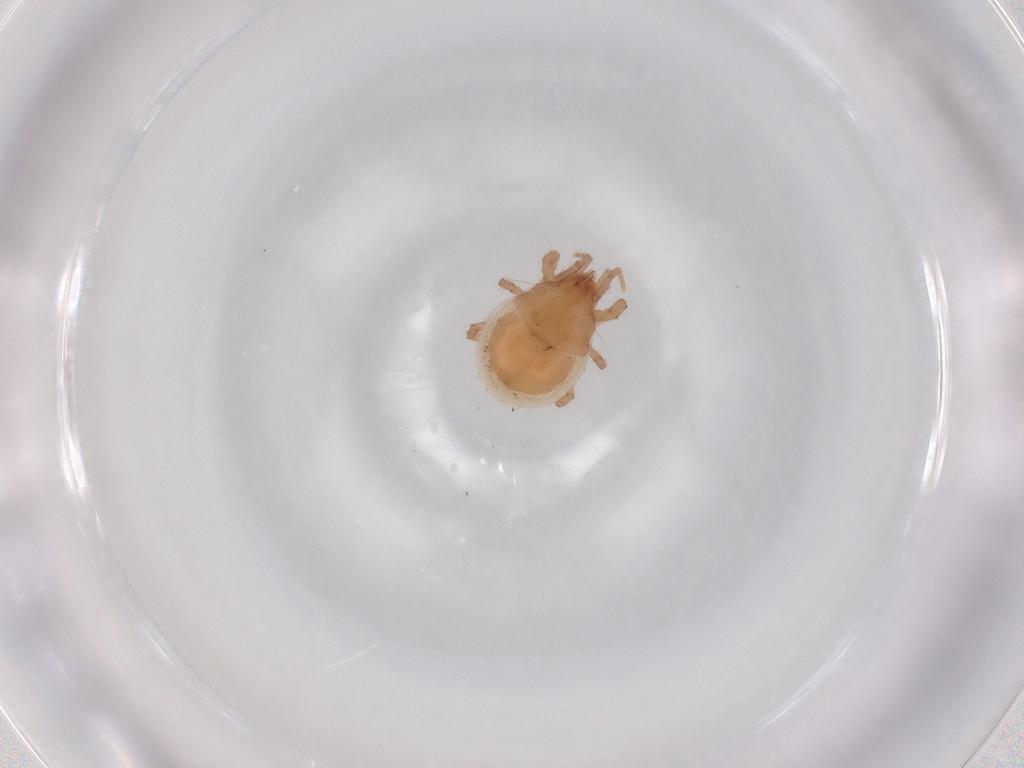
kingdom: Animalia
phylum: Arthropoda
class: Arachnida
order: Mesostigmata
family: Parasitidae
